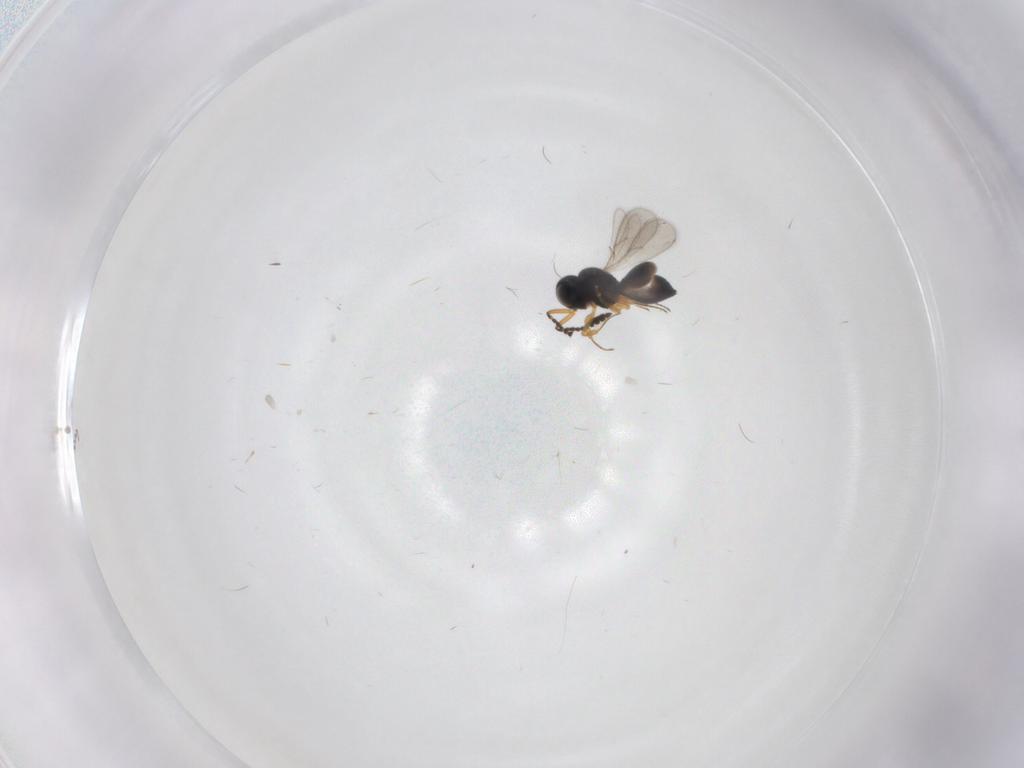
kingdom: Animalia
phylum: Arthropoda
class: Insecta
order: Hymenoptera
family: Scelionidae
